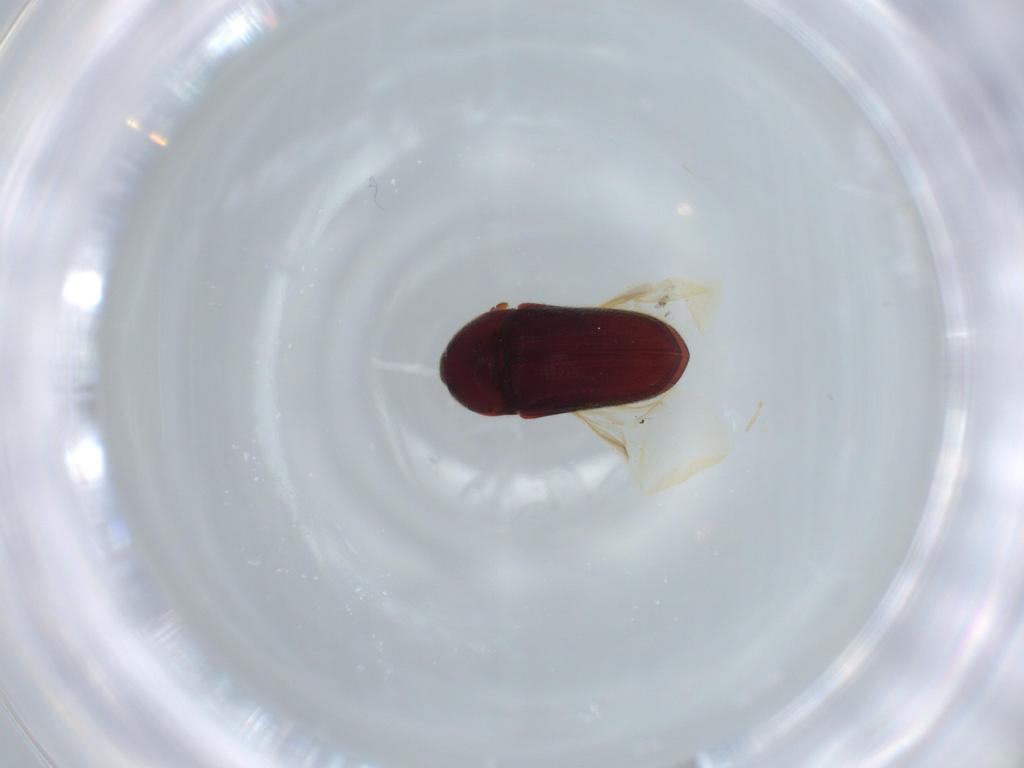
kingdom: Animalia
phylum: Arthropoda
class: Insecta
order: Coleoptera
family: Throscidae
